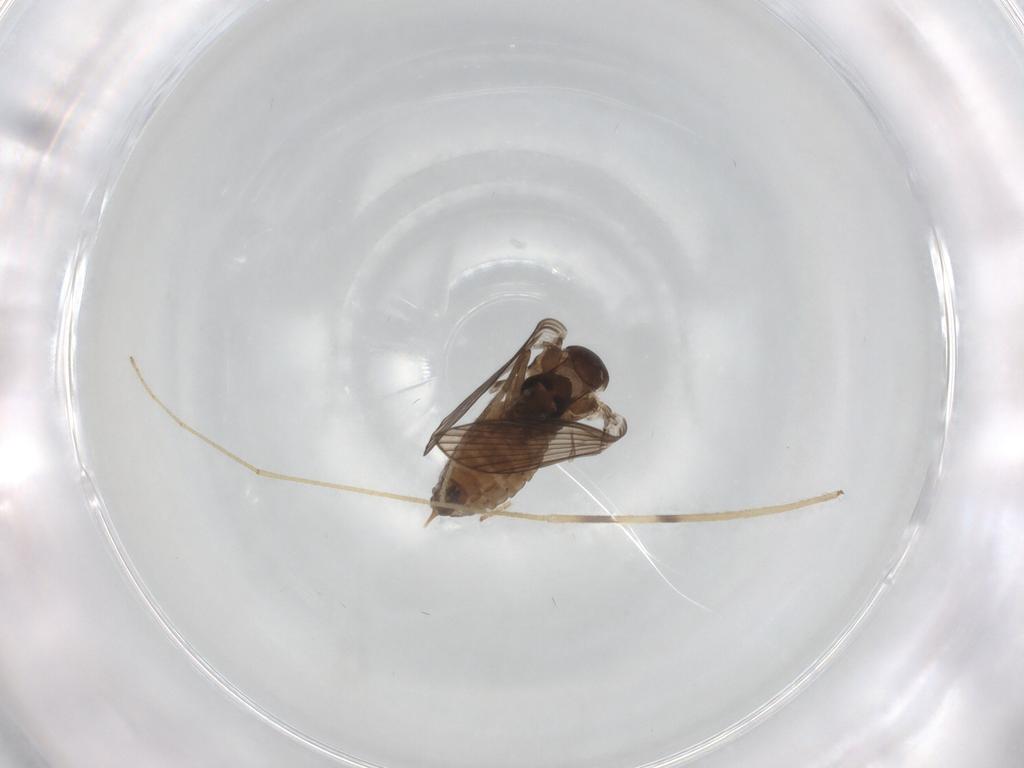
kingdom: Animalia
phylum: Arthropoda
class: Insecta
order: Diptera
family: Psychodidae
